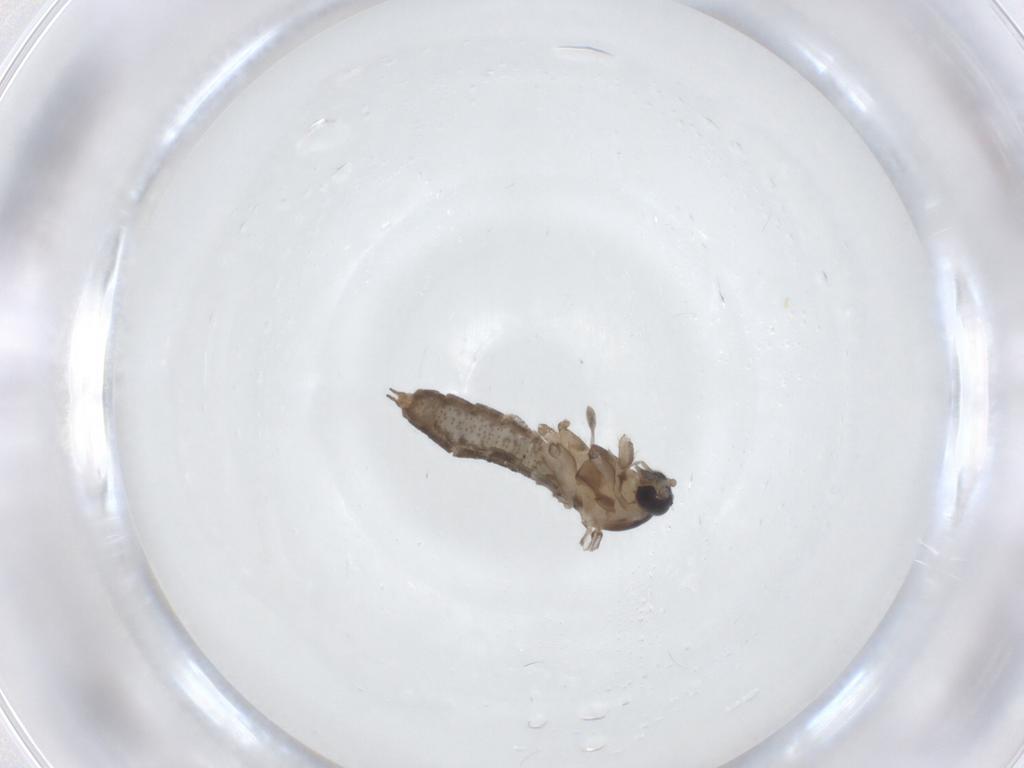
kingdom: Animalia
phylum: Arthropoda
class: Insecta
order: Diptera
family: Cecidomyiidae
